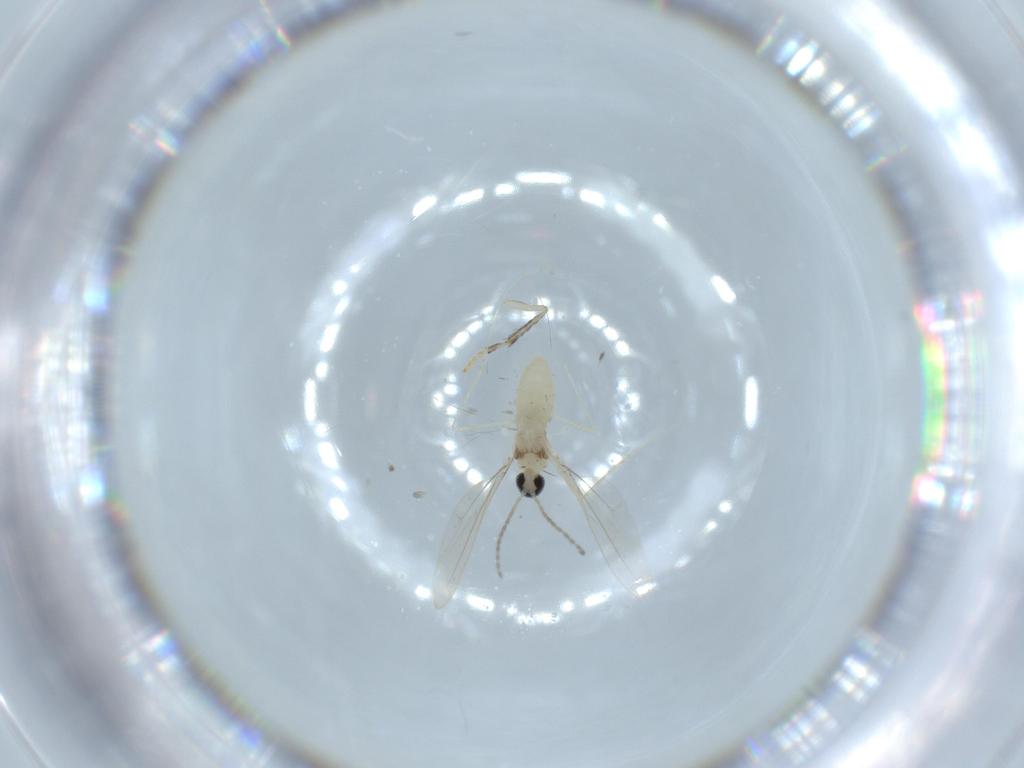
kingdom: Animalia
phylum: Arthropoda
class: Insecta
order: Diptera
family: Cecidomyiidae
